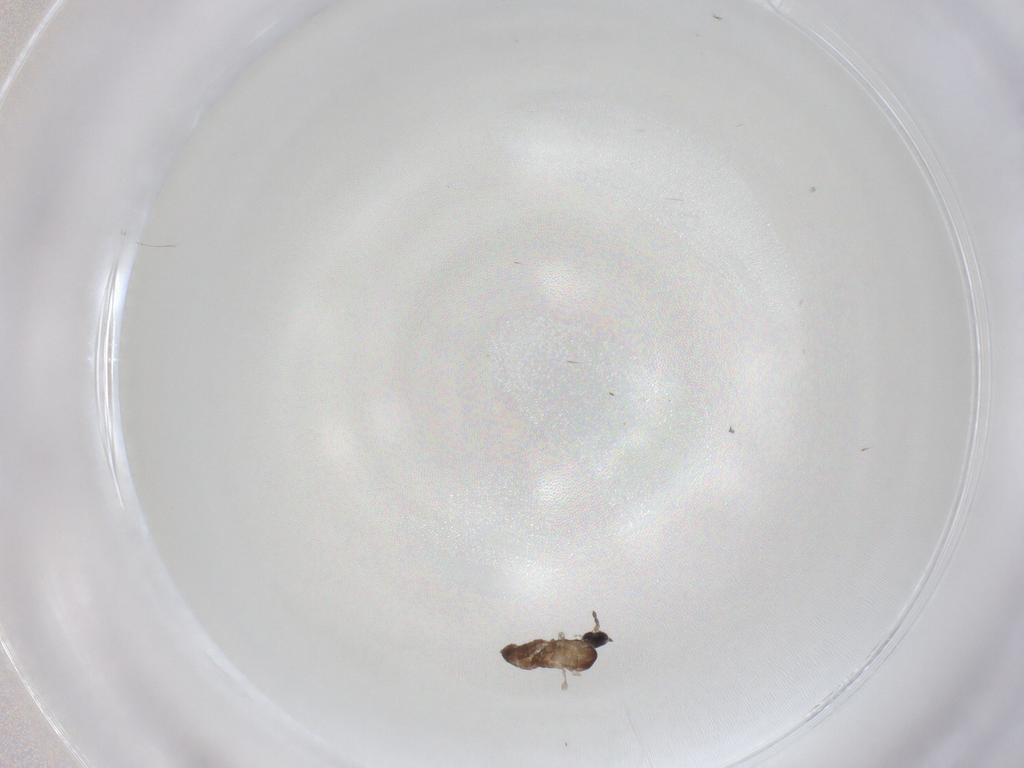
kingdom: Animalia
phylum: Arthropoda
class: Insecta
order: Diptera
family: Cecidomyiidae
